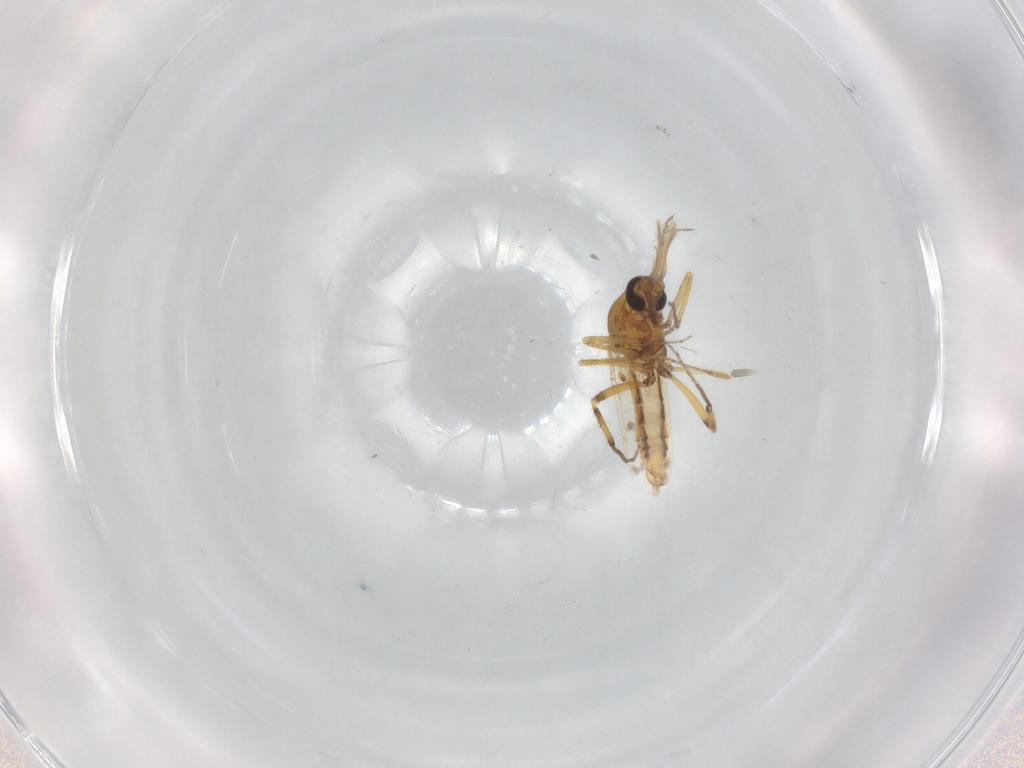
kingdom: Animalia
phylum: Arthropoda
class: Insecta
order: Diptera
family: Ceratopogonidae
